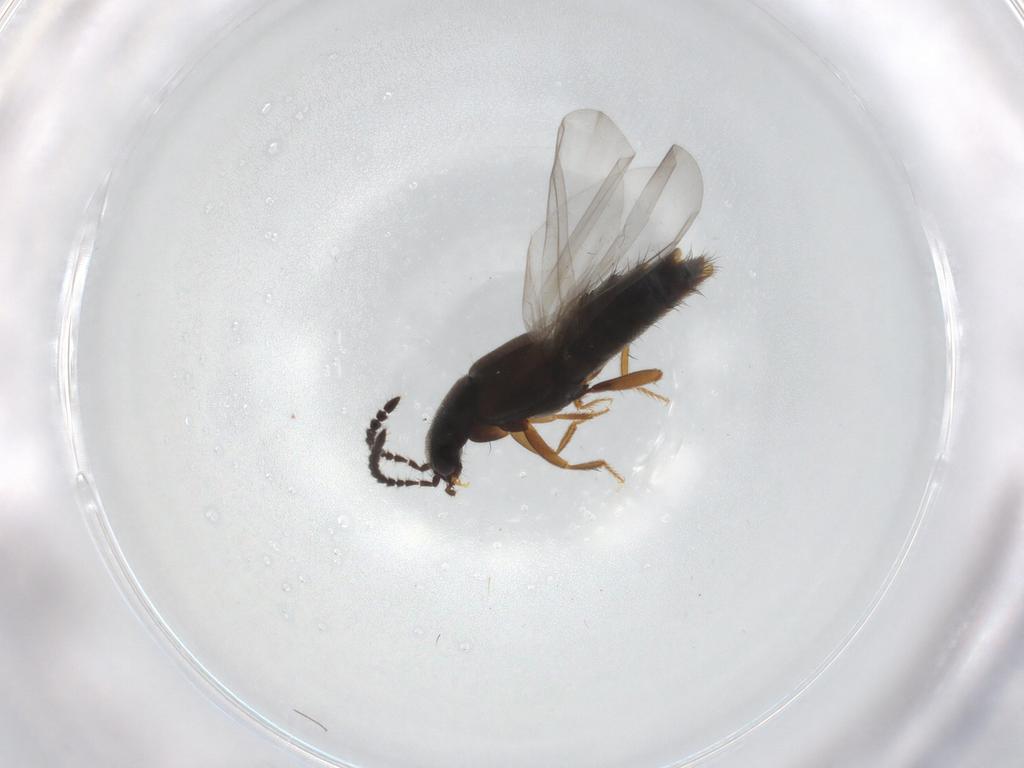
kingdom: Animalia
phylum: Arthropoda
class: Insecta
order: Coleoptera
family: Staphylinidae
